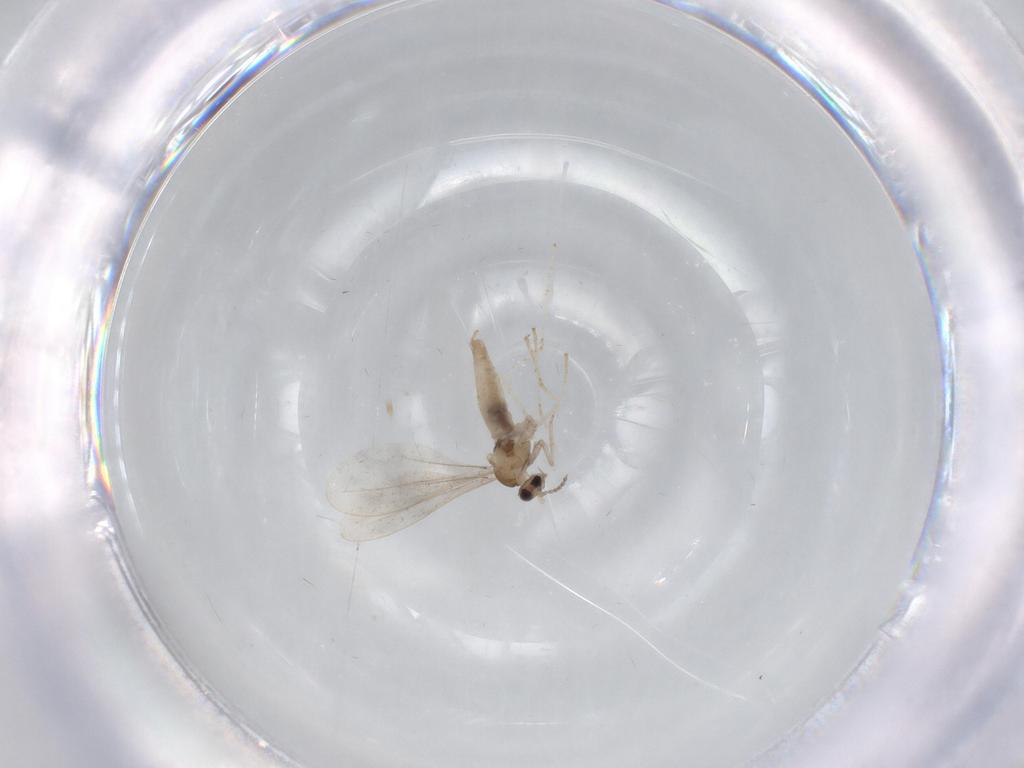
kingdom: Animalia
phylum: Arthropoda
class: Insecta
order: Diptera
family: Cecidomyiidae
